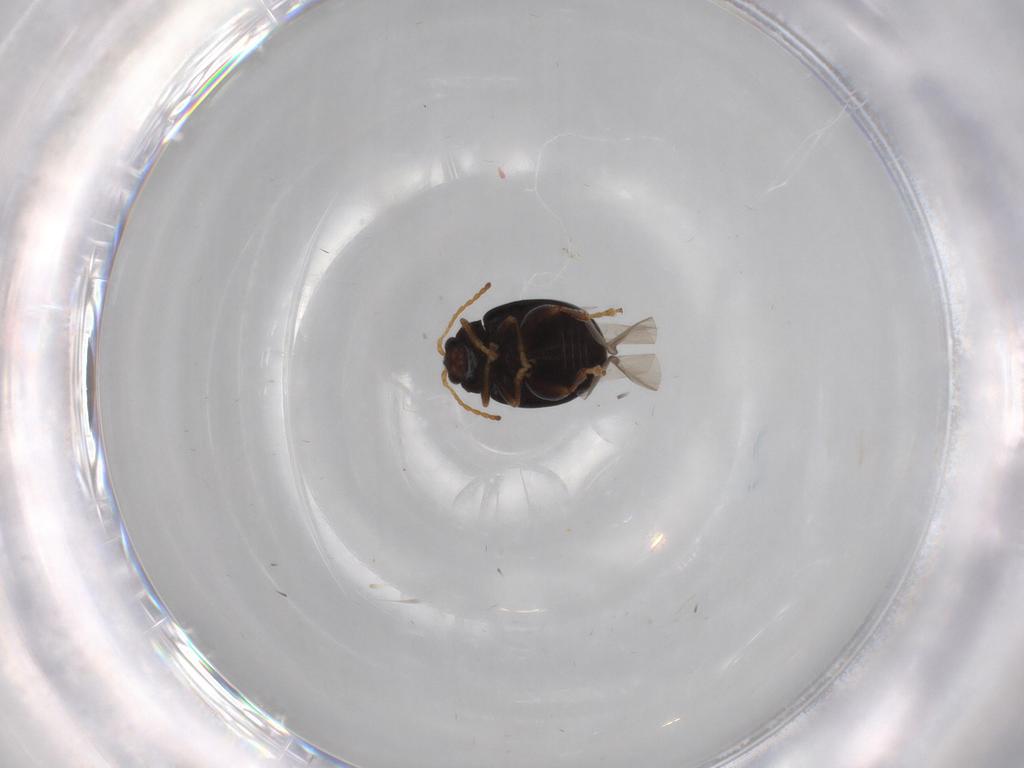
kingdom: Animalia
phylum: Arthropoda
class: Insecta
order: Coleoptera
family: Chrysomelidae
